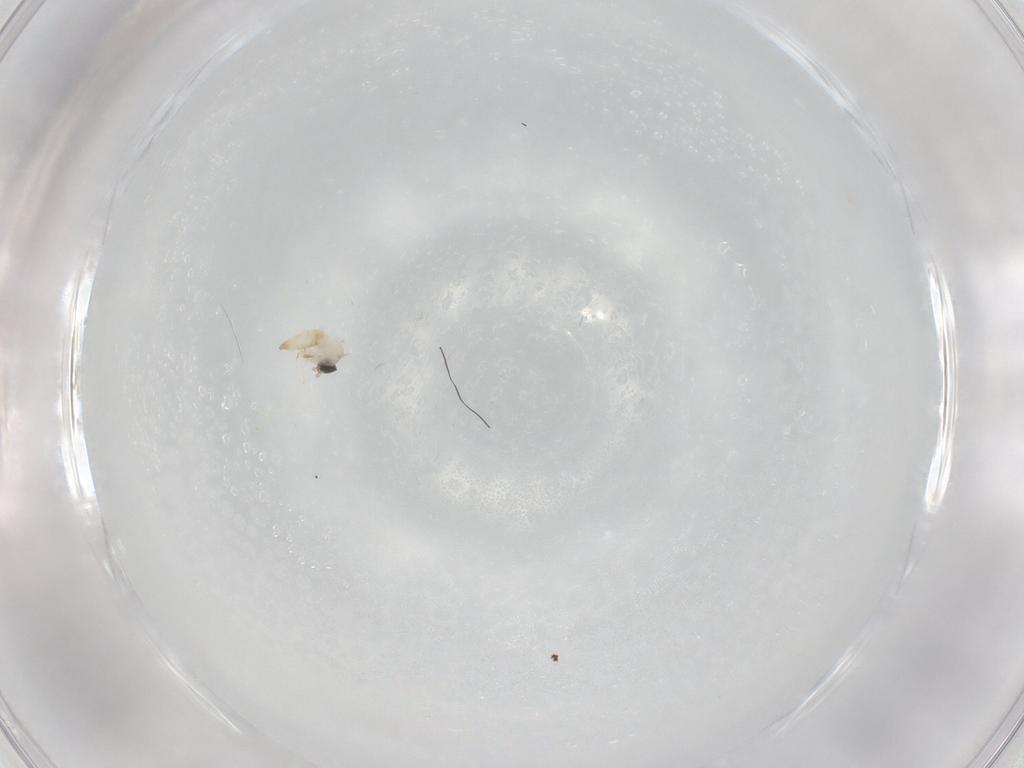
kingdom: Animalia
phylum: Arthropoda
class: Insecta
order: Diptera
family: Cecidomyiidae
